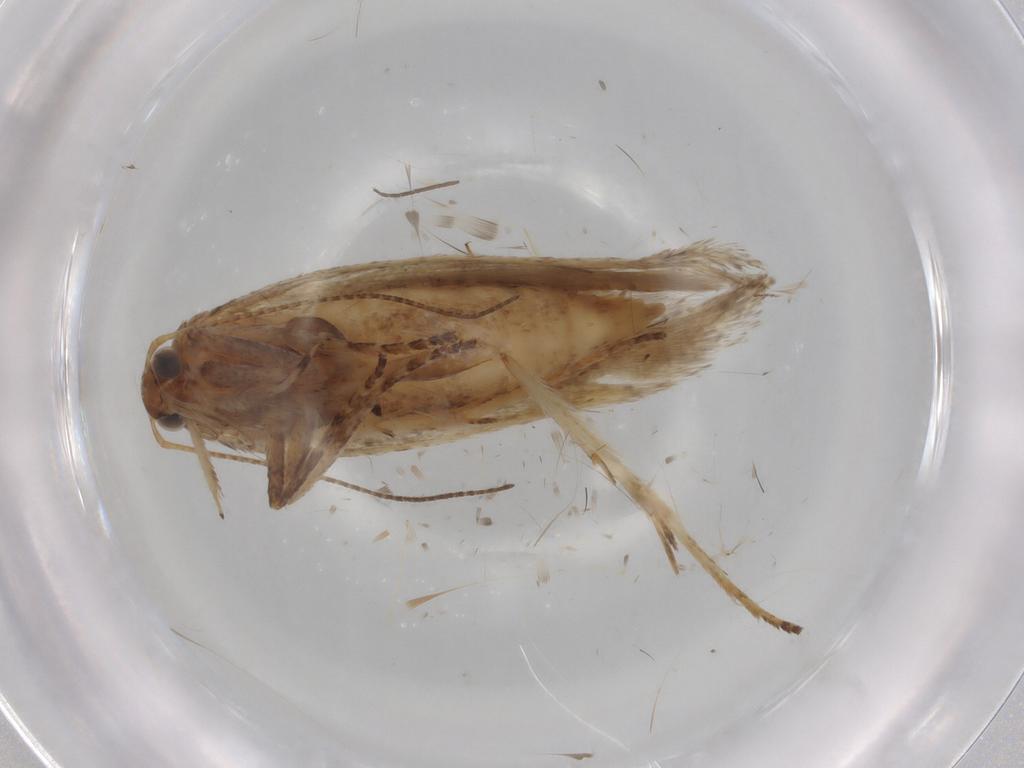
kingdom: Animalia
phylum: Arthropoda
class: Insecta
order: Lepidoptera
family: Gelechiidae
